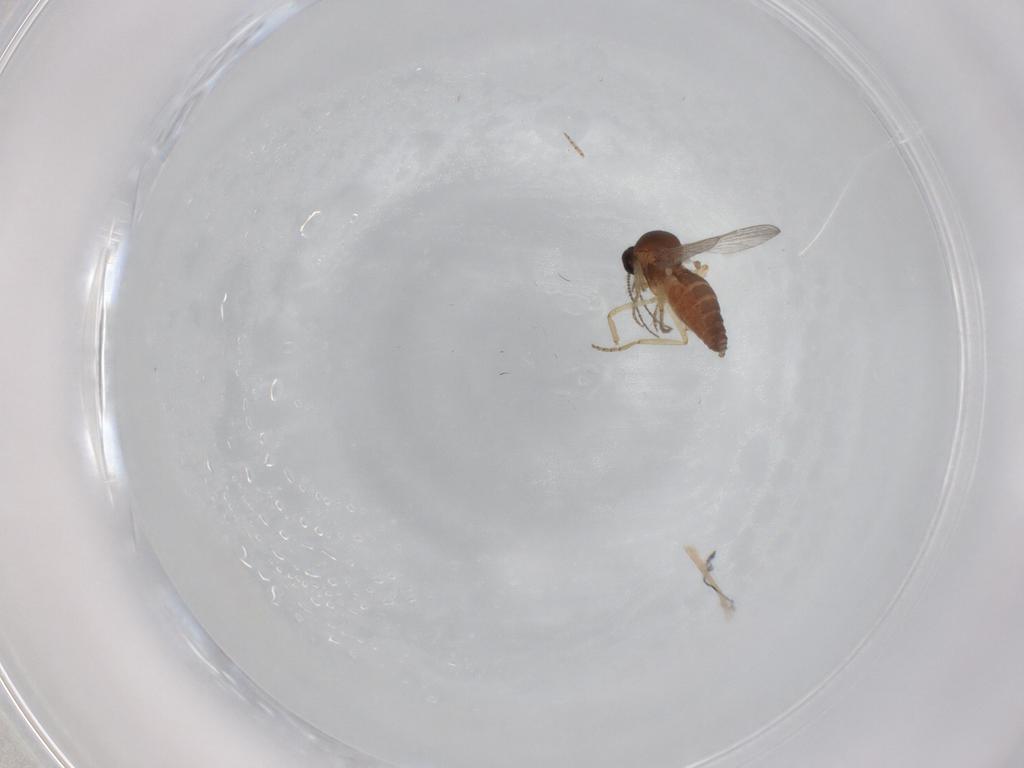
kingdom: Animalia
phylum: Arthropoda
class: Insecta
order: Diptera
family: Ceratopogonidae
